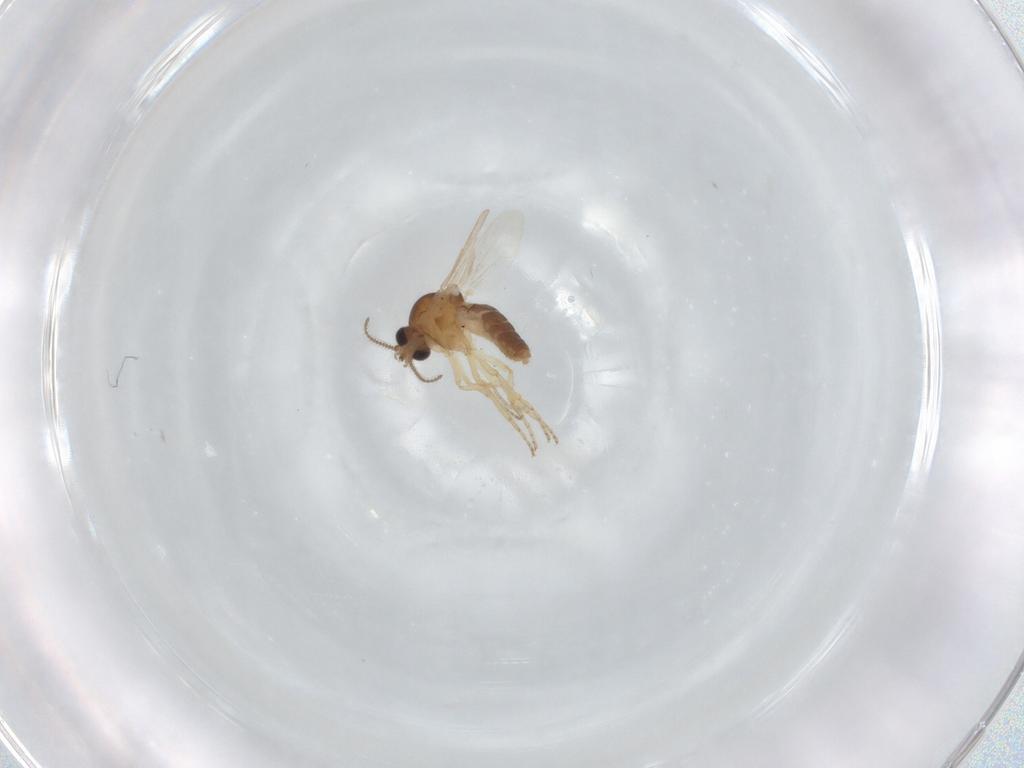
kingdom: Animalia
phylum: Arthropoda
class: Insecta
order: Diptera
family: Ceratopogonidae
